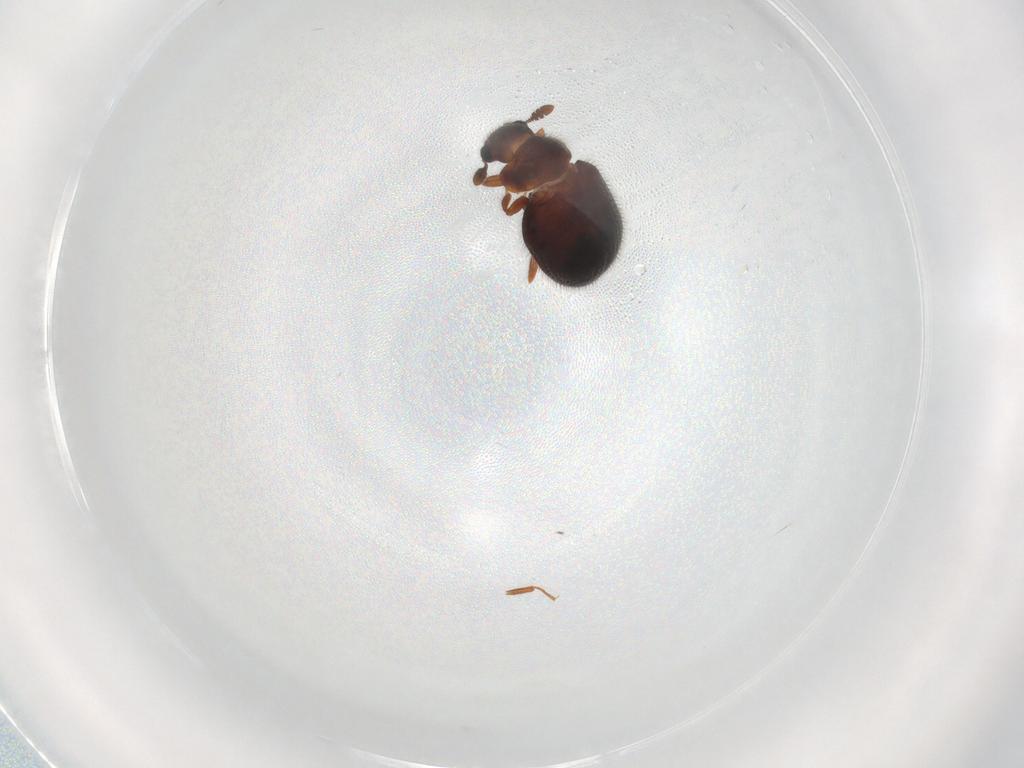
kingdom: Animalia
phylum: Arthropoda
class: Insecta
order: Coleoptera
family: Sphindidae
